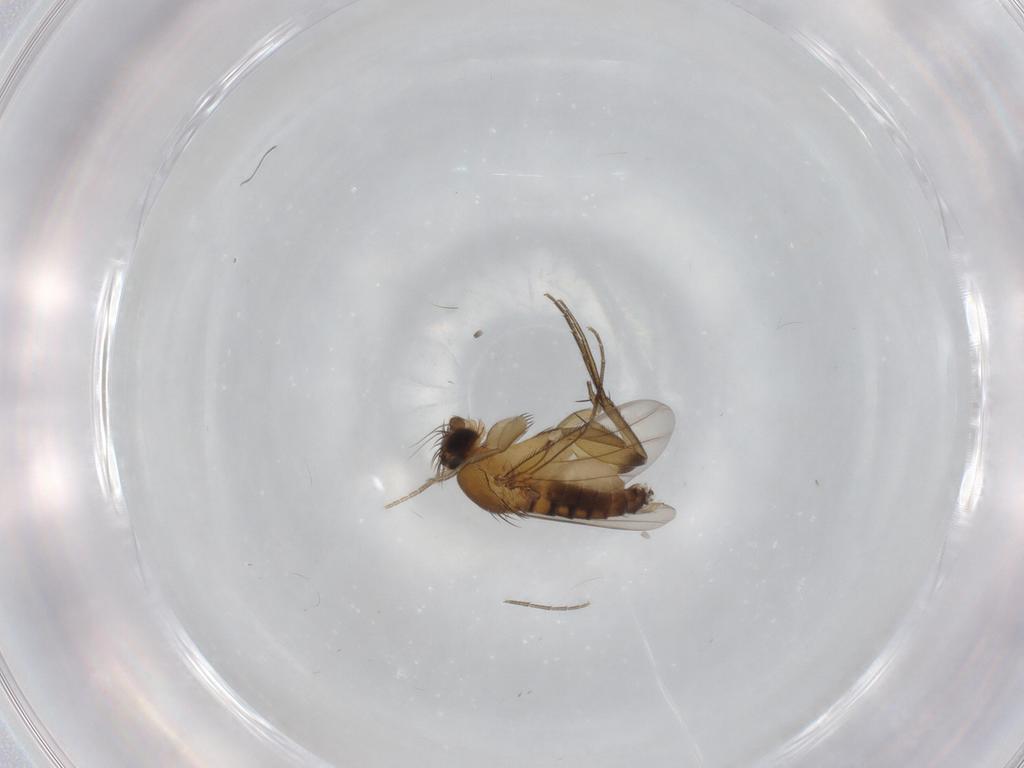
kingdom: Animalia
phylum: Arthropoda
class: Insecta
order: Diptera
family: Phoridae
